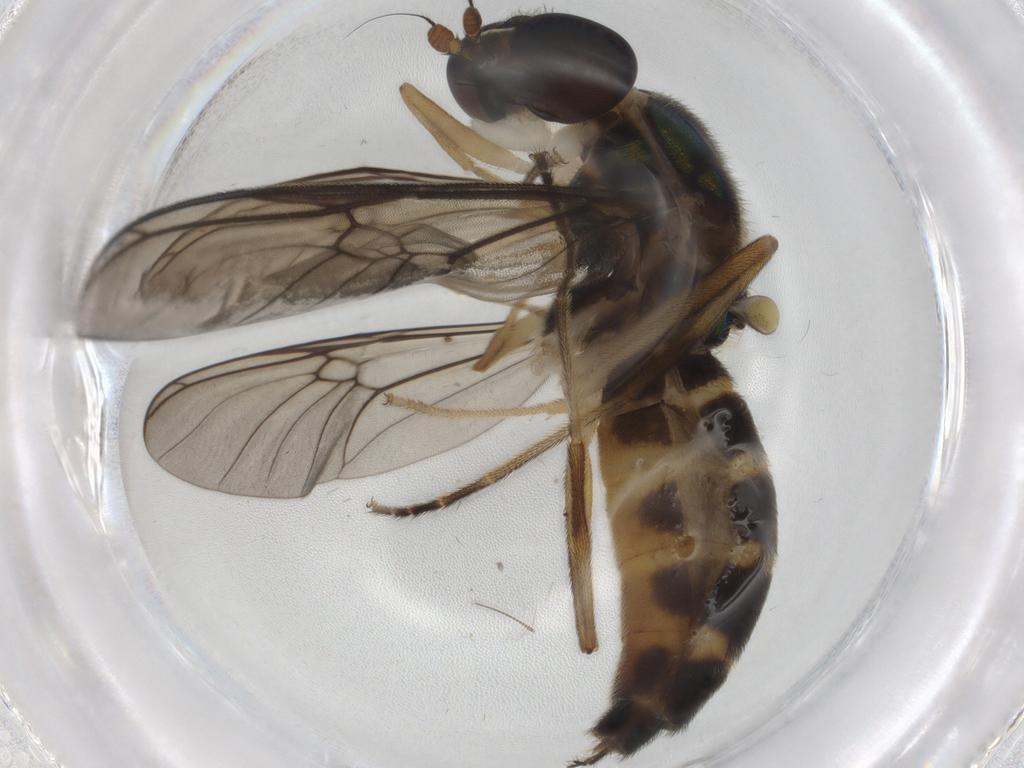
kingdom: Animalia
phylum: Arthropoda
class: Insecta
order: Diptera
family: Stratiomyidae
